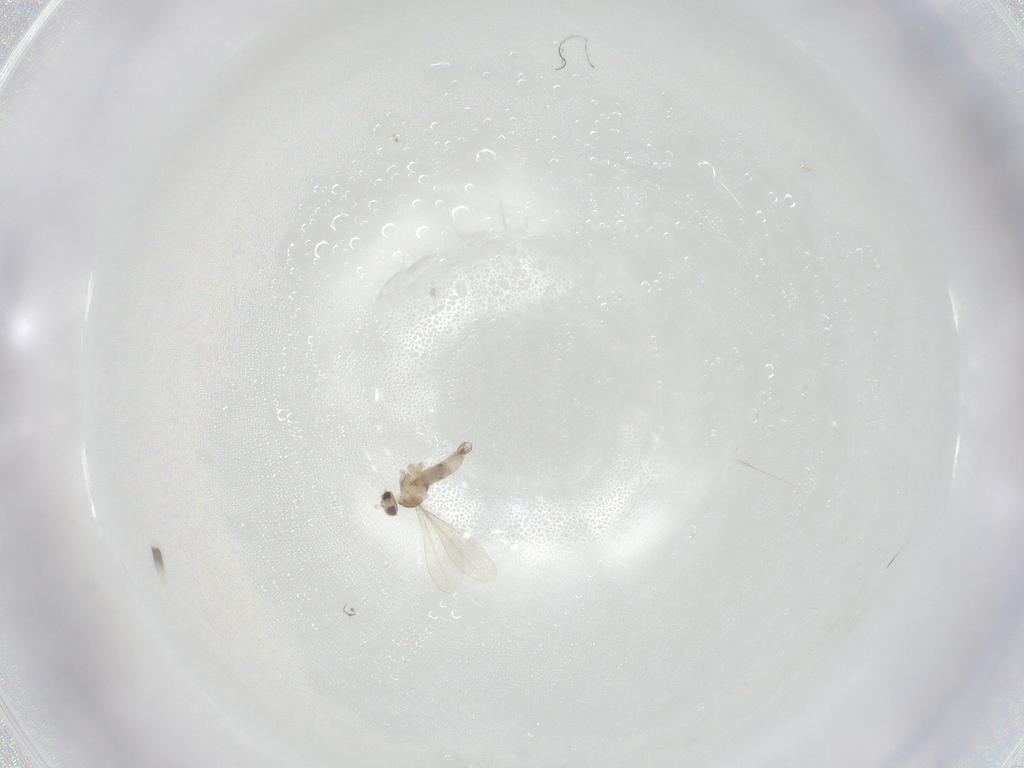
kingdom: Animalia
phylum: Arthropoda
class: Insecta
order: Diptera
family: Cecidomyiidae
